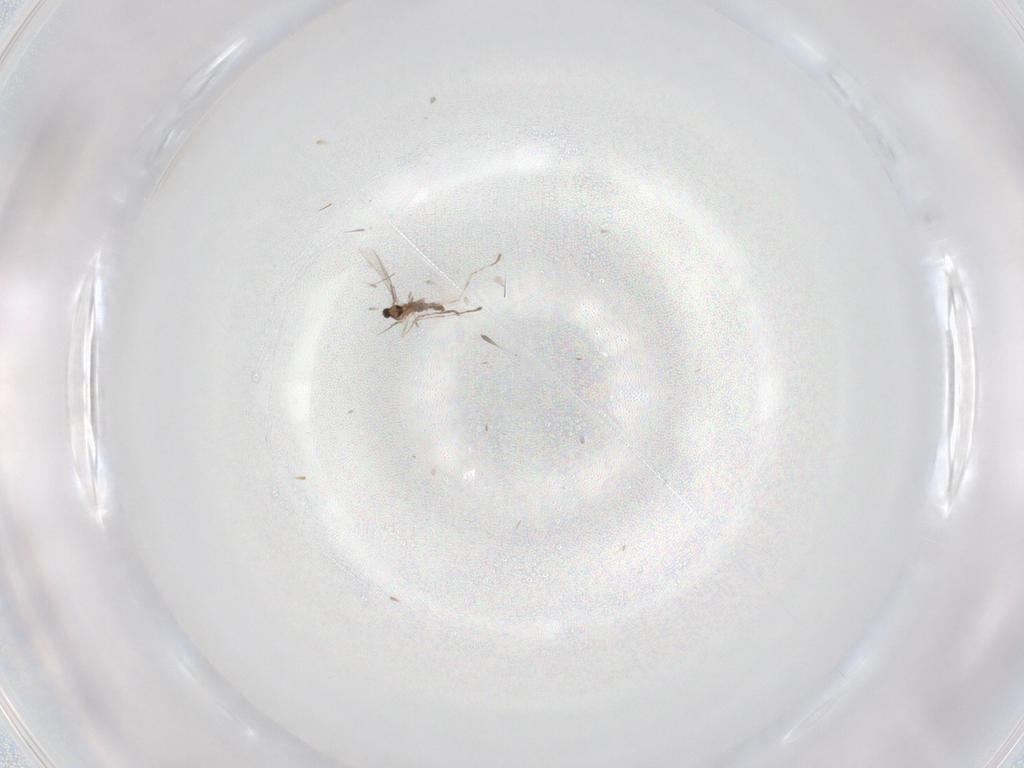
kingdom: Animalia
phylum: Arthropoda
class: Insecta
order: Diptera
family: Cecidomyiidae
